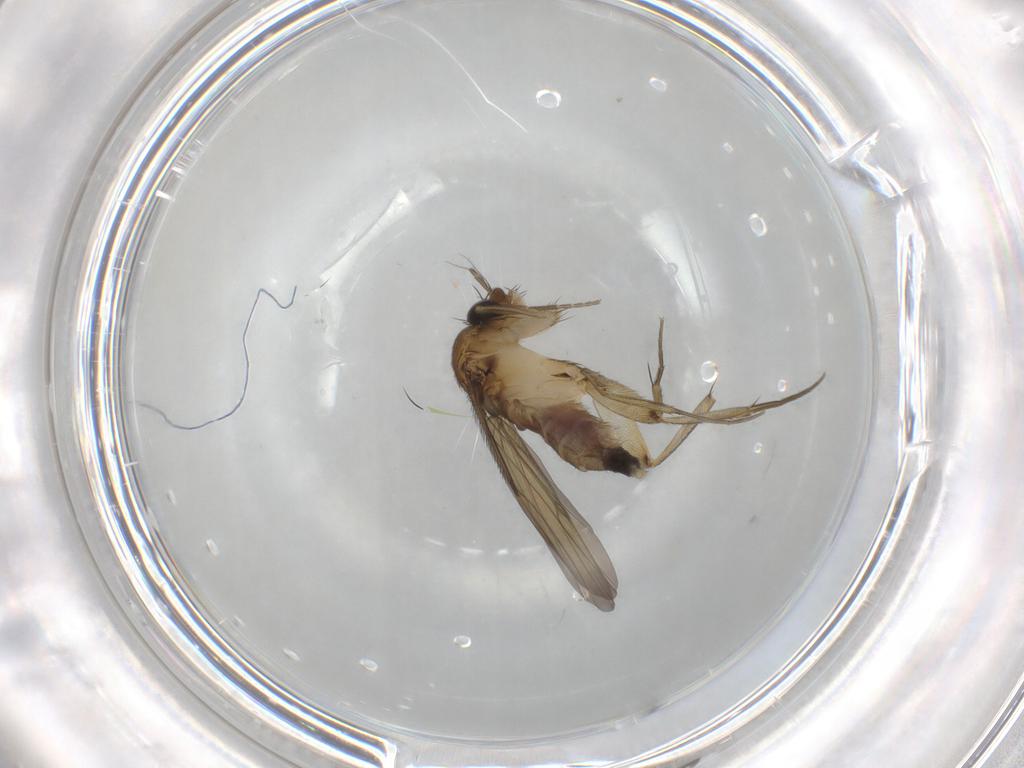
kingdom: Animalia
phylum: Arthropoda
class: Insecta
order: Diptera
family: Phoridae
